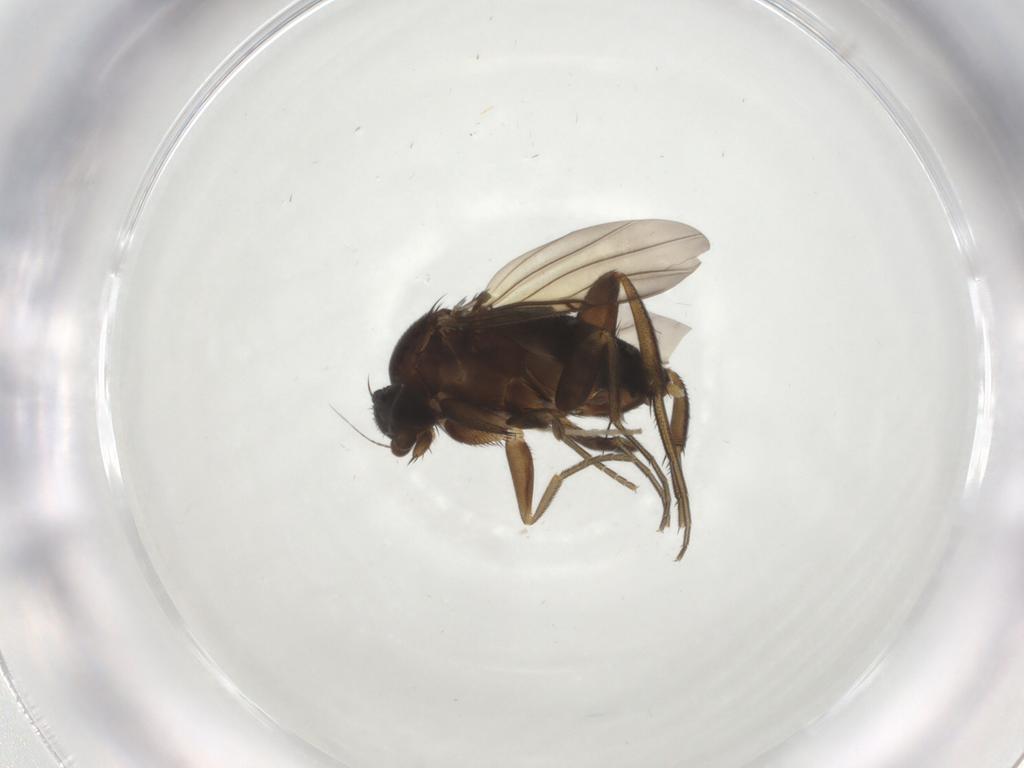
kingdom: Animalia
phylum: Arthropoda
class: Insecta
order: Diptera
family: Phoridae
